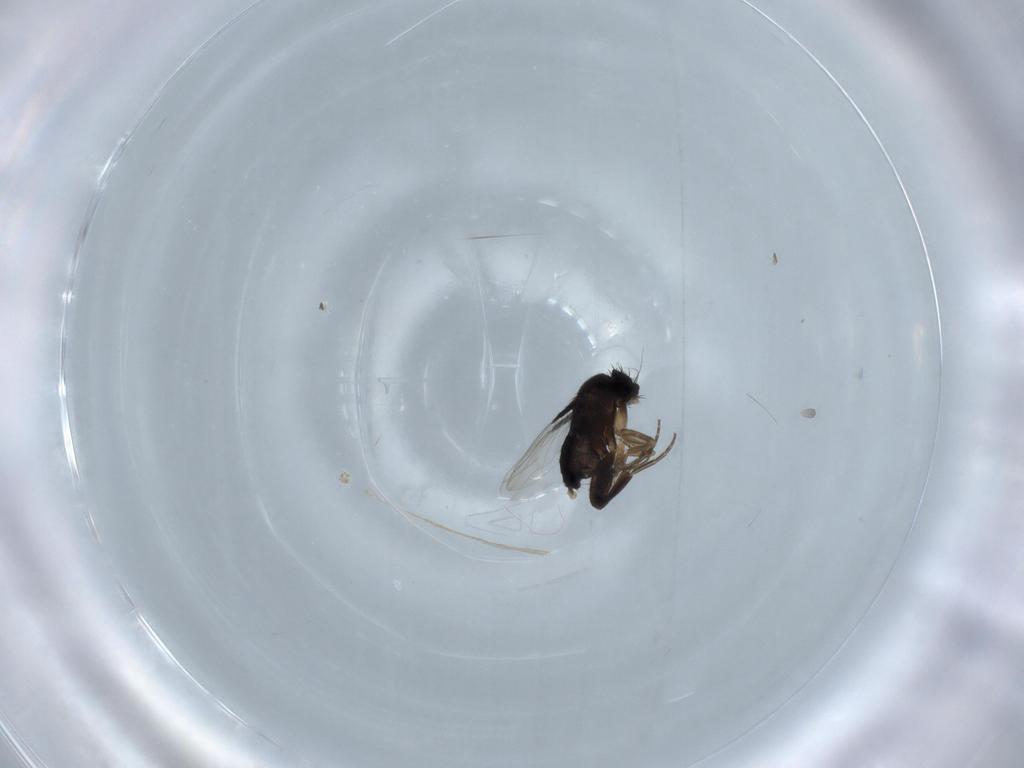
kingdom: Animalia
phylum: Arthropoda
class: Insecta
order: Diptera
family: Phoridae
